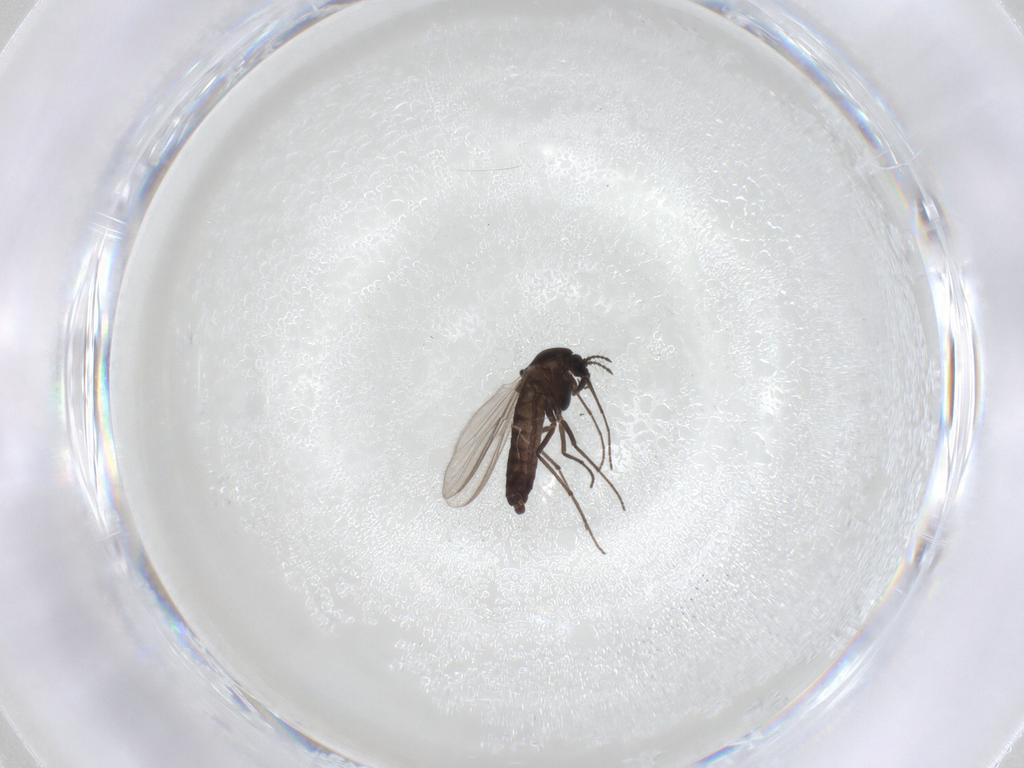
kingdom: Animalia
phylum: Arthropoda
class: Insecta
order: Diptera
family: Chironomidae
